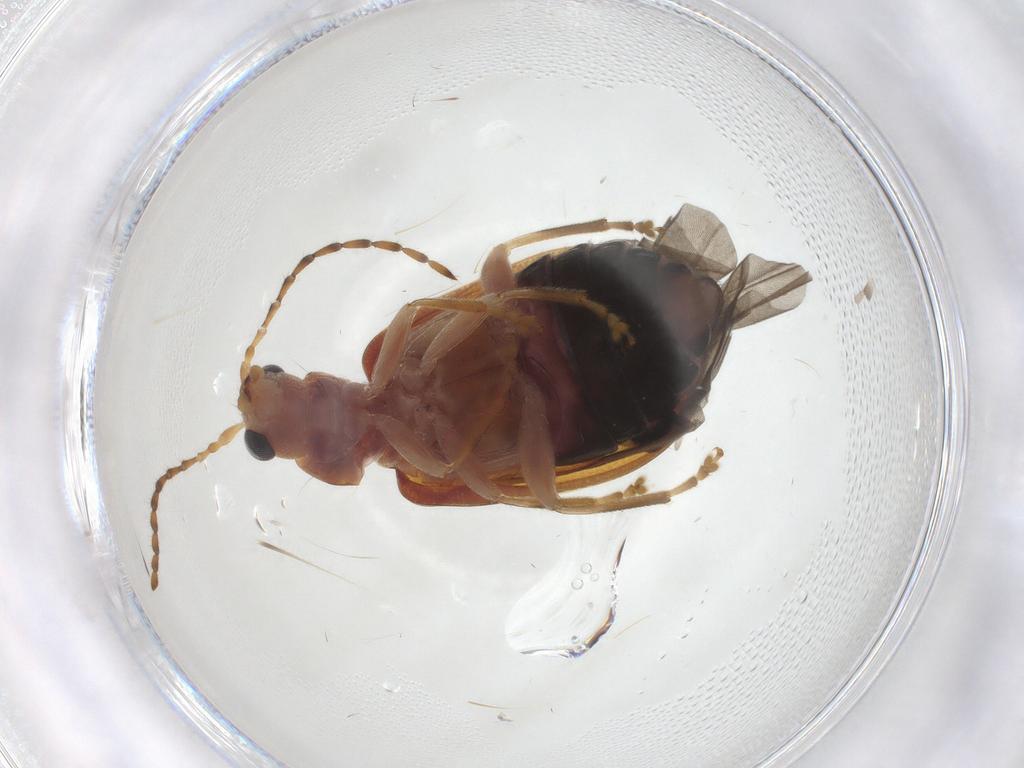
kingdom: Animalia
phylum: Arthropoda
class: Insecta
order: Coleoptera
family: Chrysomelidae
